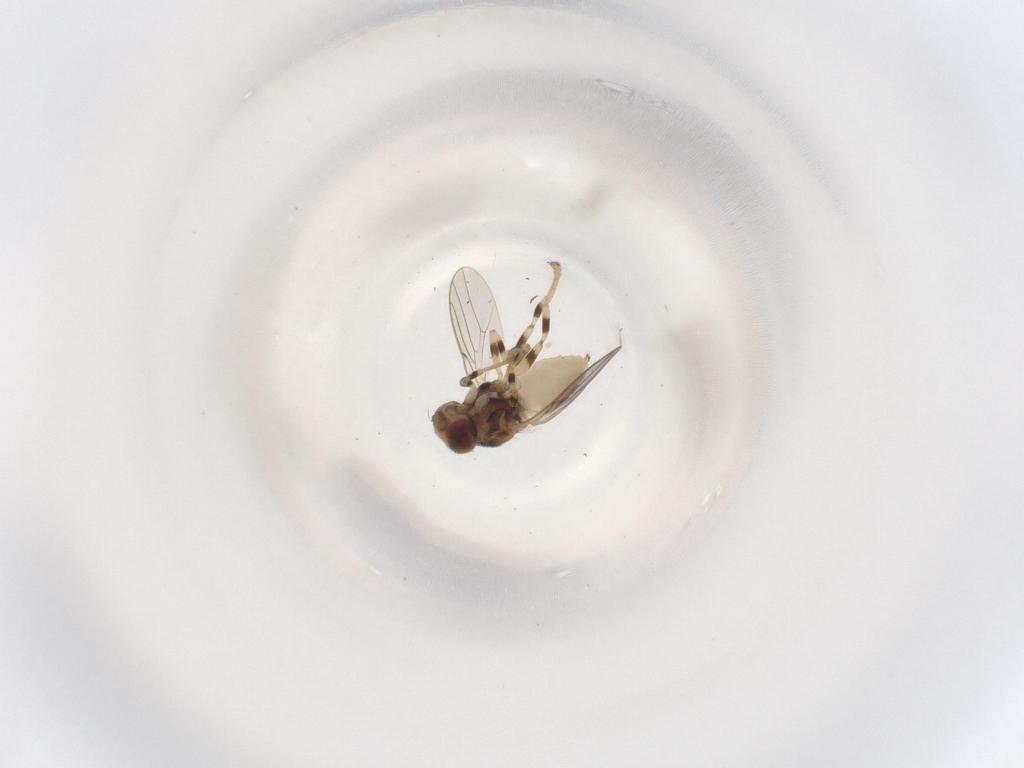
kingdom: Animalia
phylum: Arthropoda
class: Insecta
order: Diptera
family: Chloropidae
